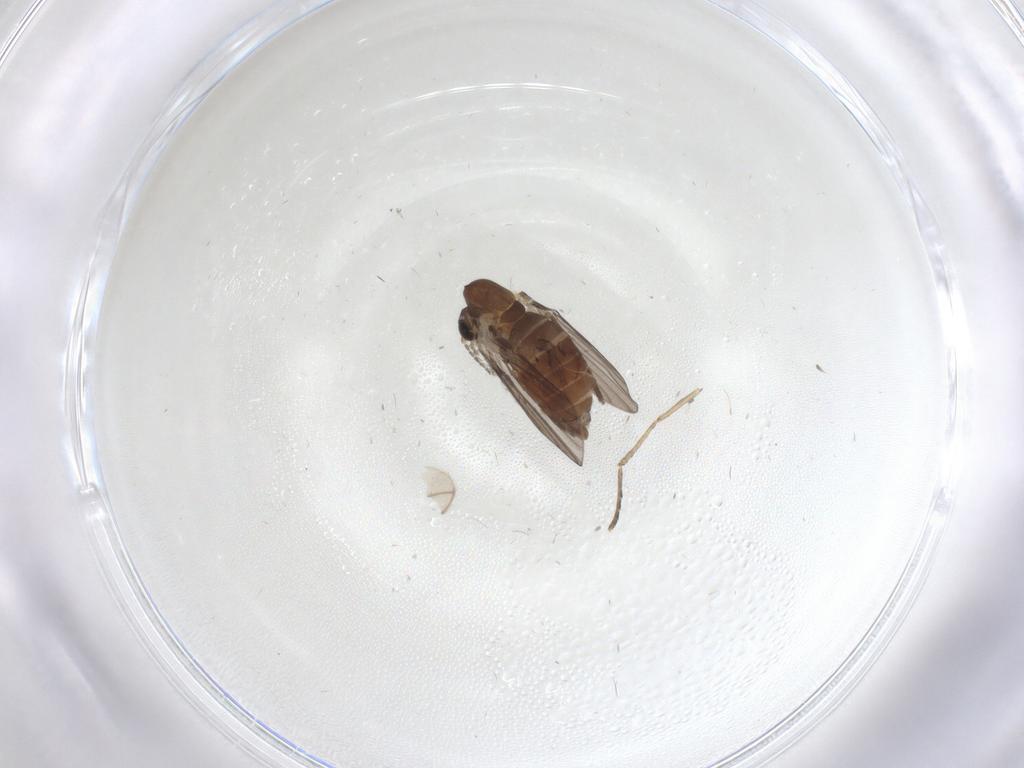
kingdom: Animalia
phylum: Arthropoda
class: Insecta
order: Diptera
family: Psychodidae
